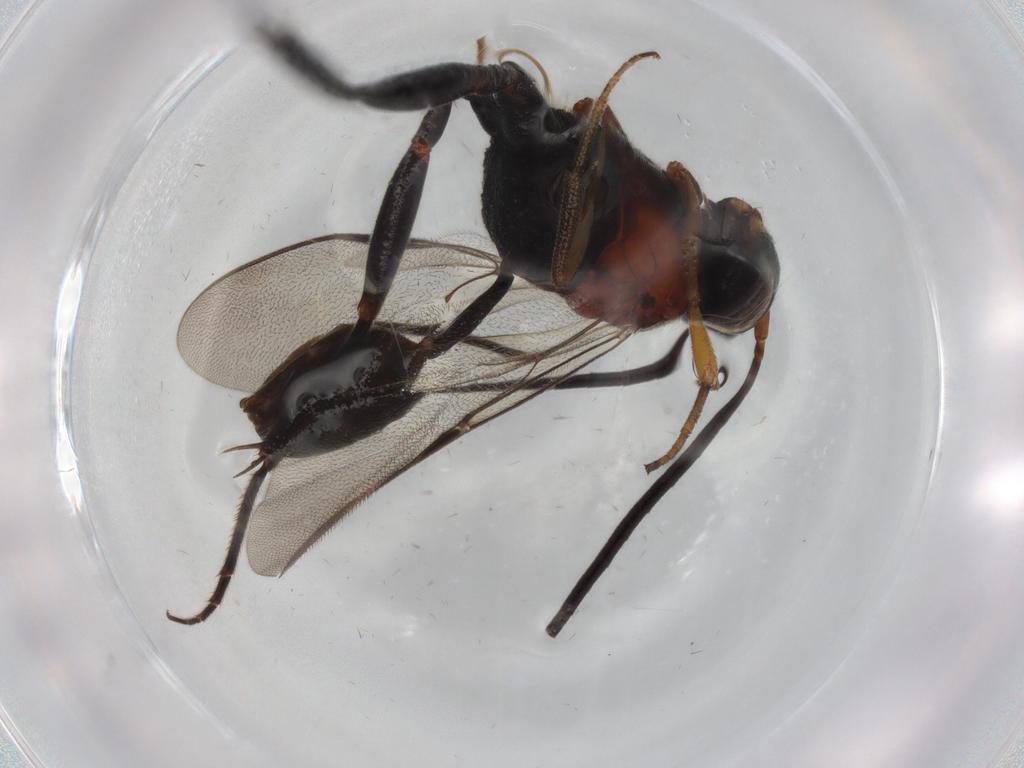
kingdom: Animalia
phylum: Arthropoda
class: Insecta
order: Hymenoptera
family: Evaniidae
